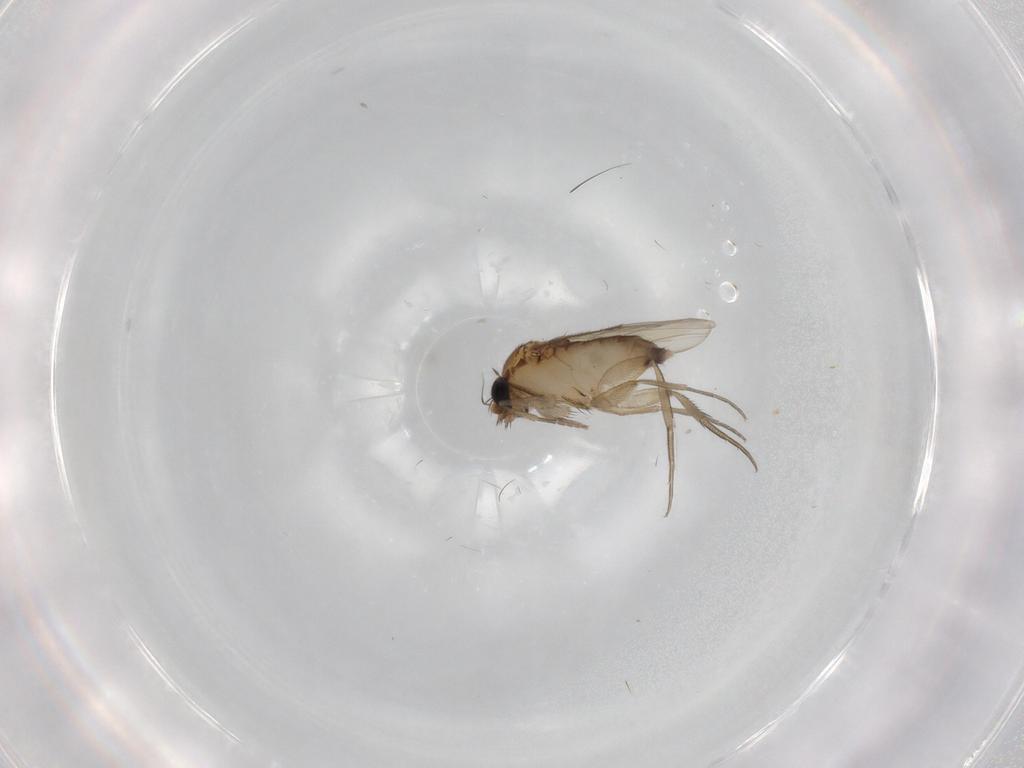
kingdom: Animalia
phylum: Arthropoda
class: Insecta
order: Diptera
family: Phoridae
